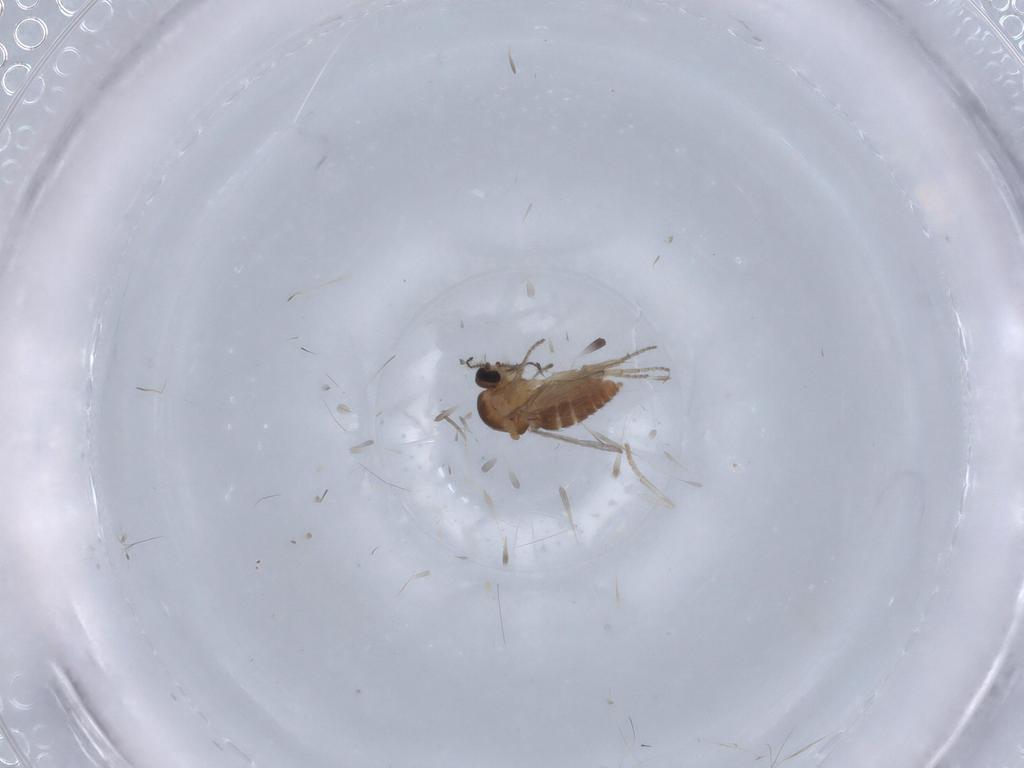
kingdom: Animalia
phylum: Arthropoda
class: Insecta
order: Diptera
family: Ceratopogonidae
